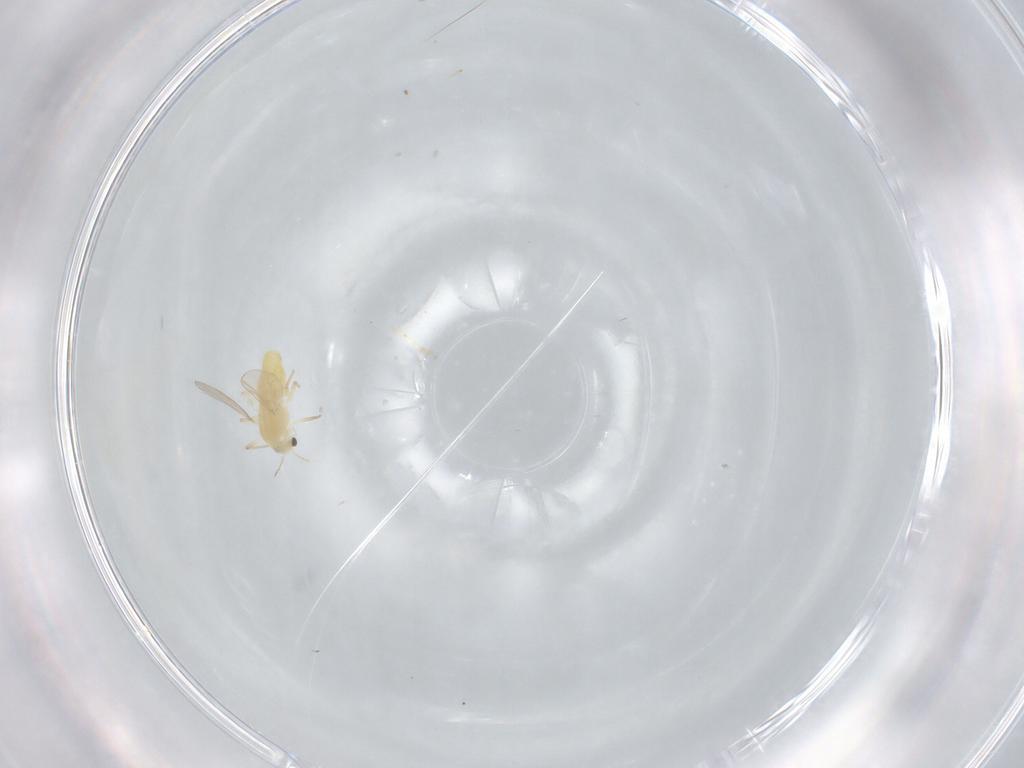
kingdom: Animalia
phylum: Arthropoda
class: Insecta
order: Diptera
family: Chironomidae
